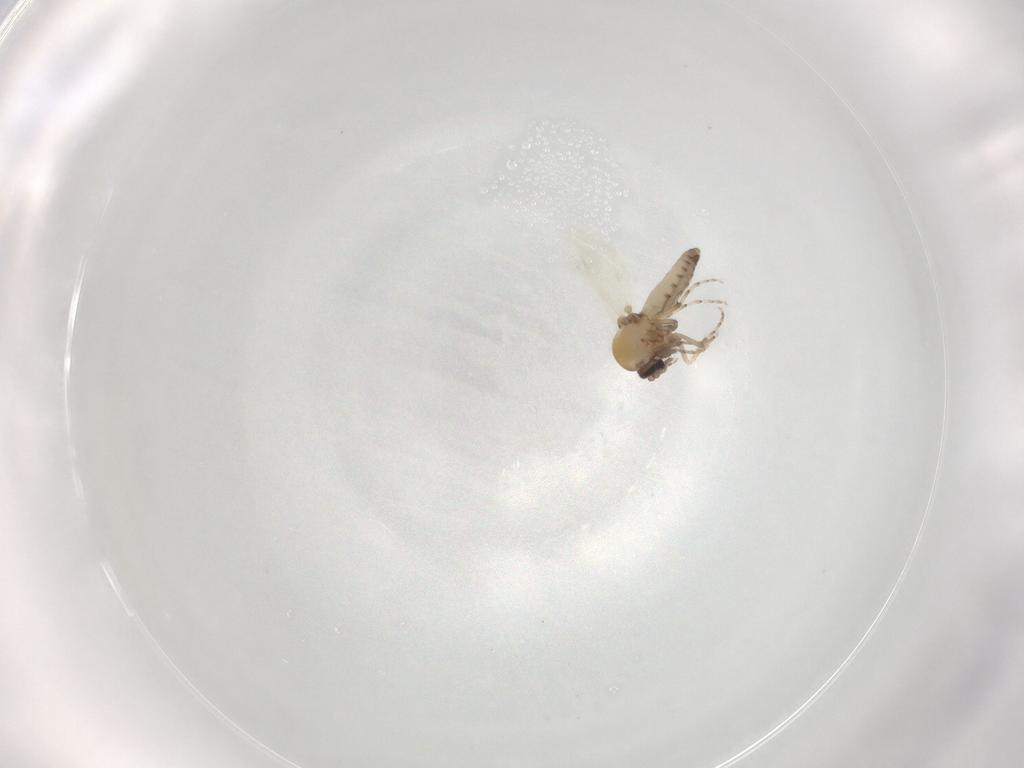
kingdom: Animalia
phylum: Arthropoda
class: Insecta
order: Diptera
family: Ceratopogonidae
